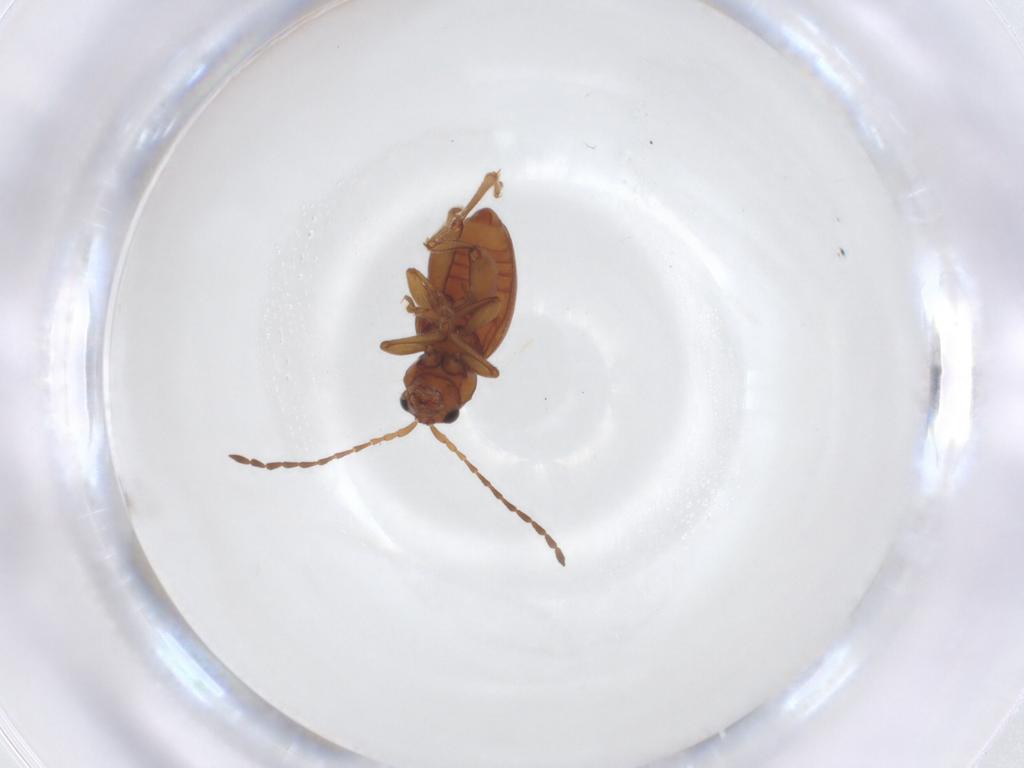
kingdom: Animalia
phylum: Arthropoda
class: Insecta
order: Coleoptera
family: Chrysomelidae
